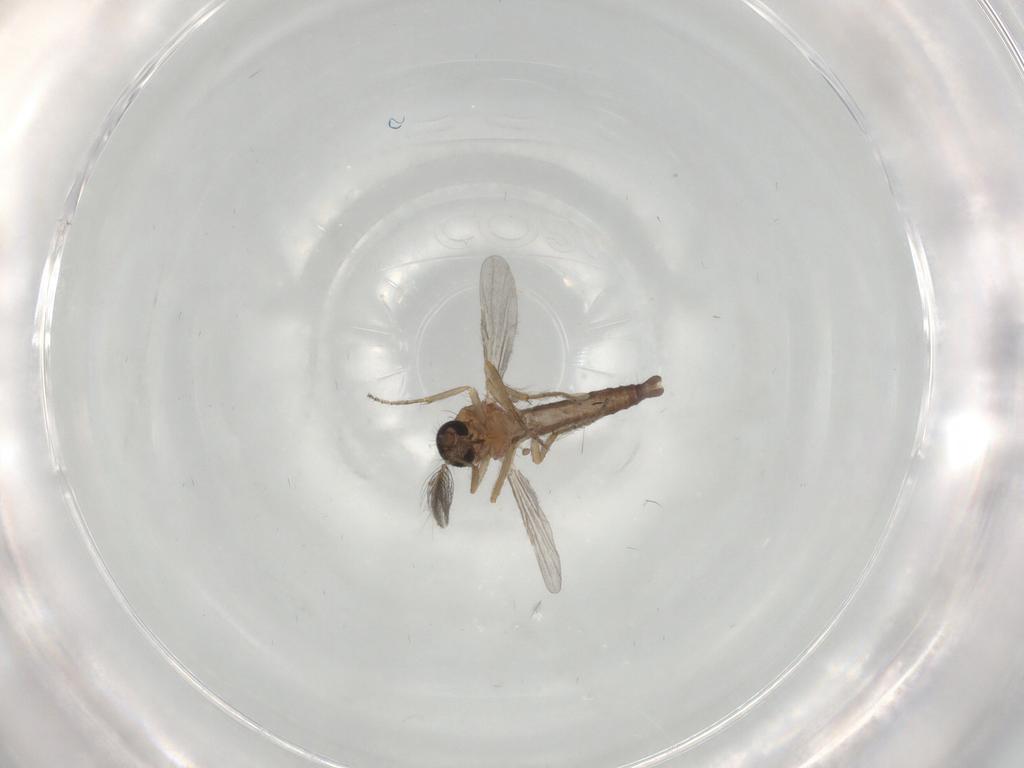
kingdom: Animalia
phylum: Arthropoda
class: Insecta
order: Diptera
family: Ceratopogonidae
